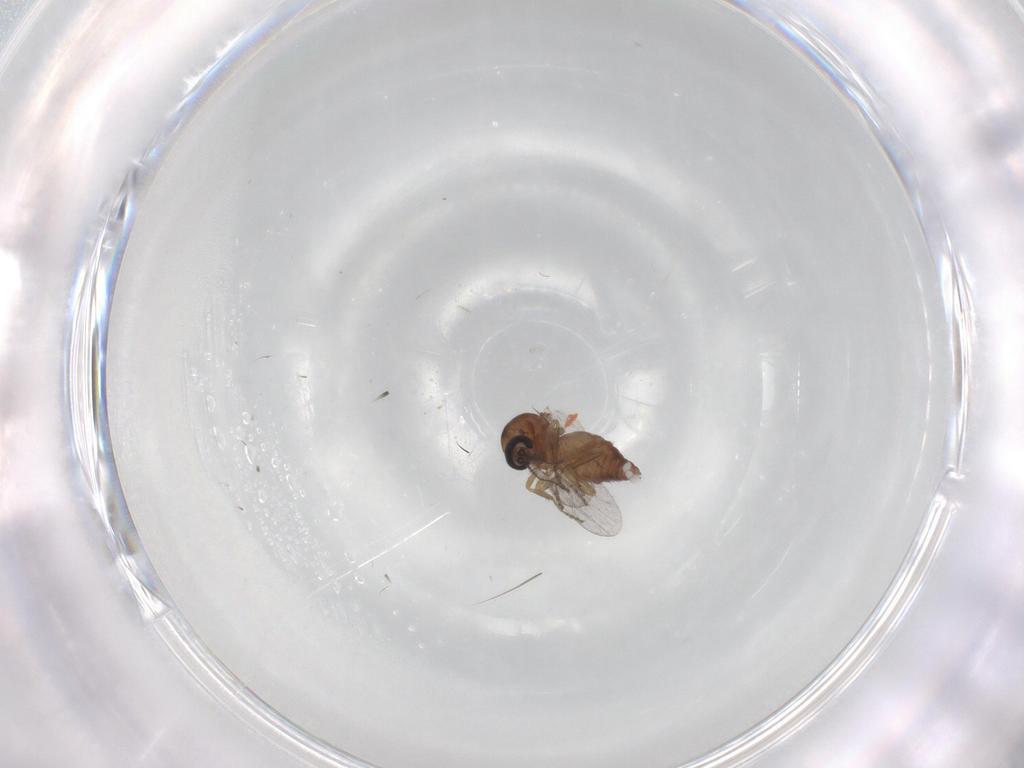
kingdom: Animalia
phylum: Arthropoda
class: Insecta
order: Diptera
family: Ceratopogonidae
